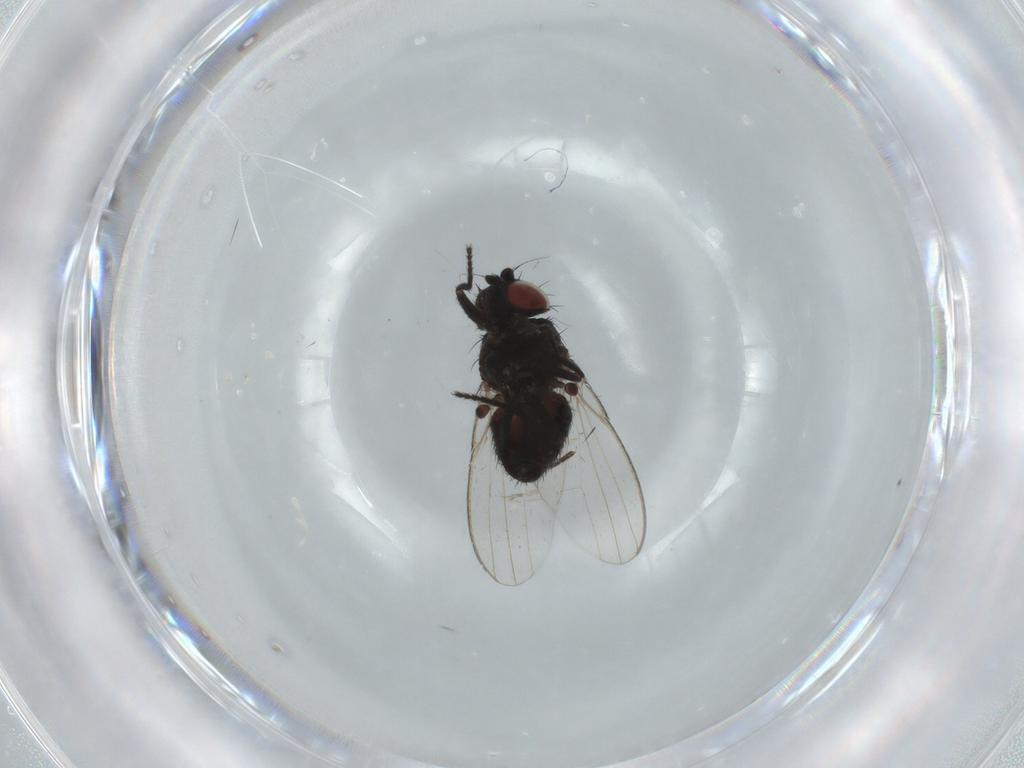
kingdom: Animalia
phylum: Arthropoda
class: Insecta
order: Diptera
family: Milichiidae
